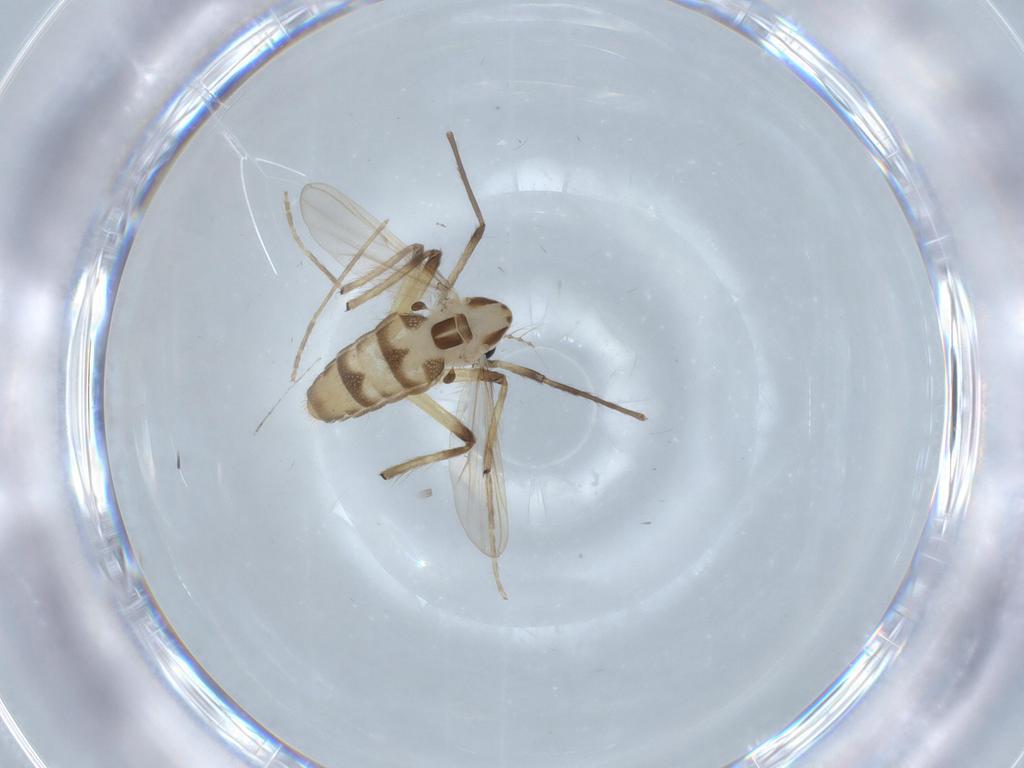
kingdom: Animalia
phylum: Arthropoda
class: Insecta
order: Diptera
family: Chironomidae
